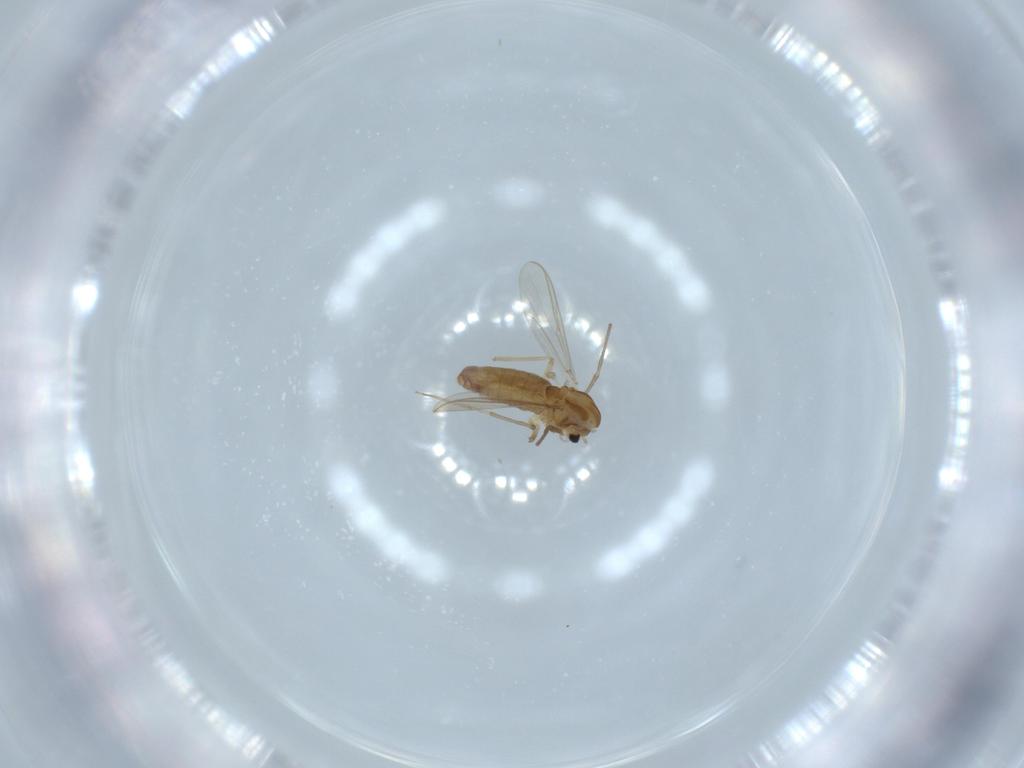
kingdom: Animalia
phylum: Arthropoda
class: Insecta
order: Diptera
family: Chironomidae
